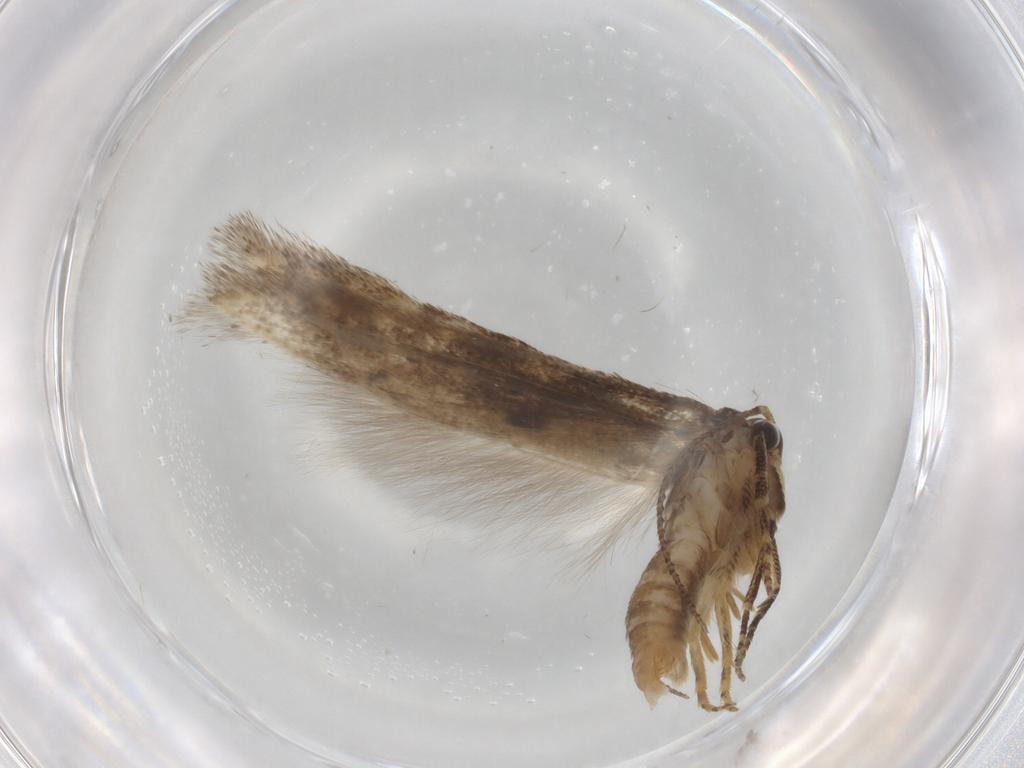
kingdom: Animalia
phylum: Arthropoda
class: Insecta
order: Lepidoptera
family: Gelechiidae
